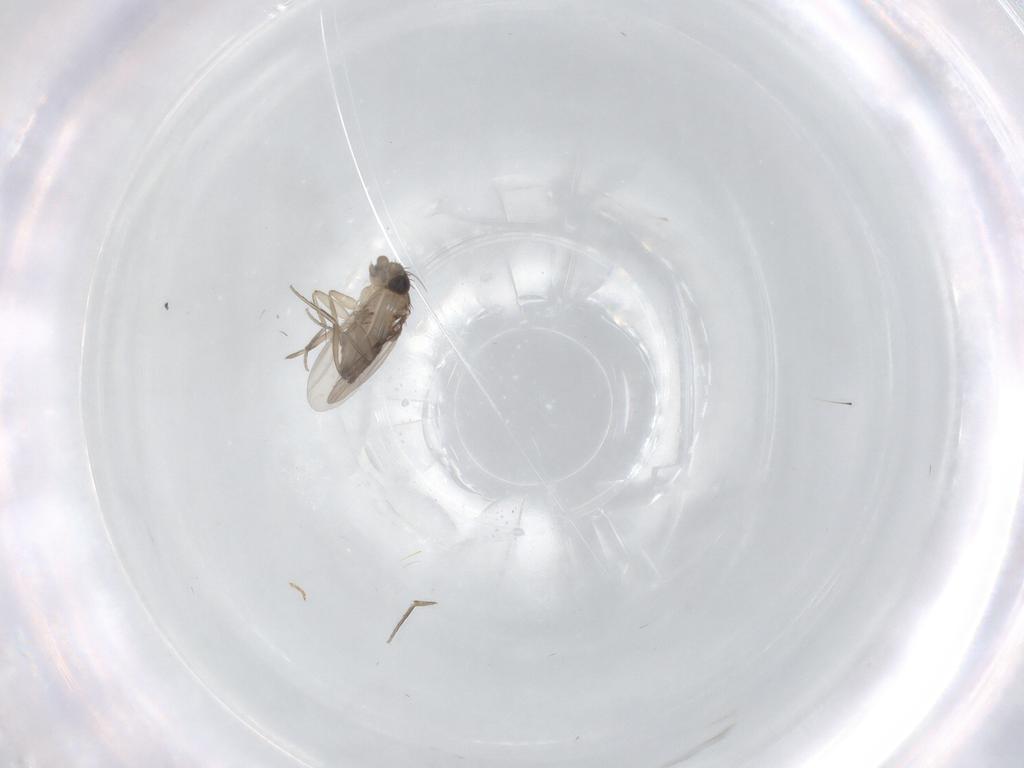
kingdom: Animalia
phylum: Arthropoda
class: Insecta
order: Diptera
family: Phoridae
